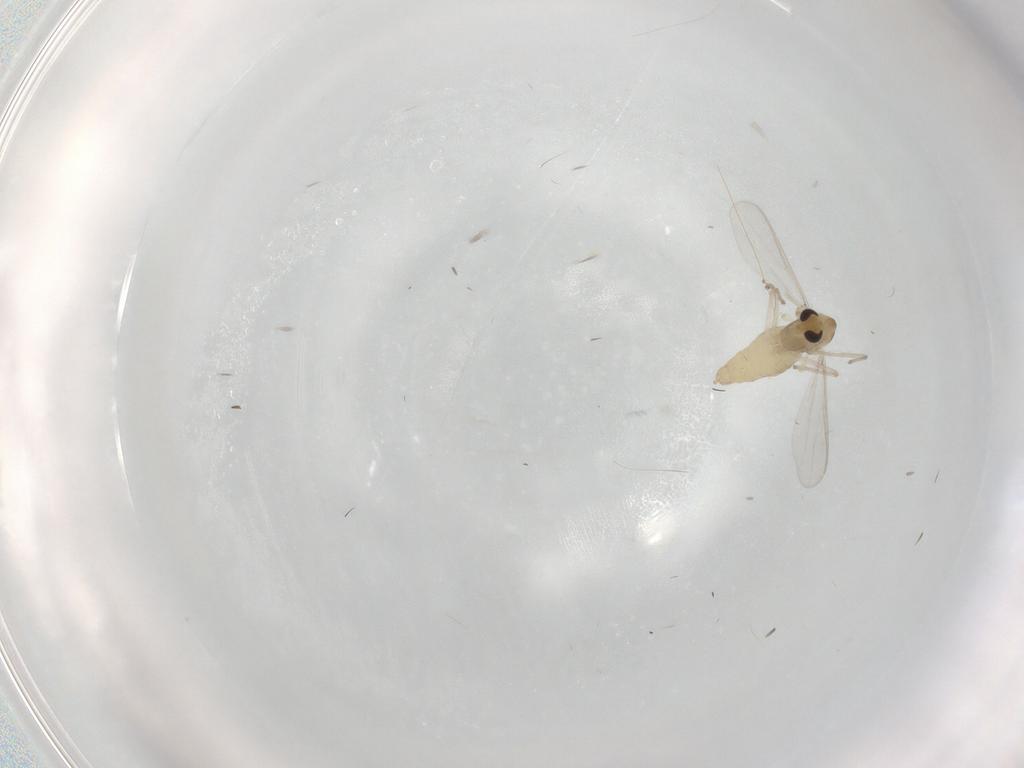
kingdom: Animalia
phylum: Arthropoda
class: Insecta
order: Diptera
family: Chironomidae
